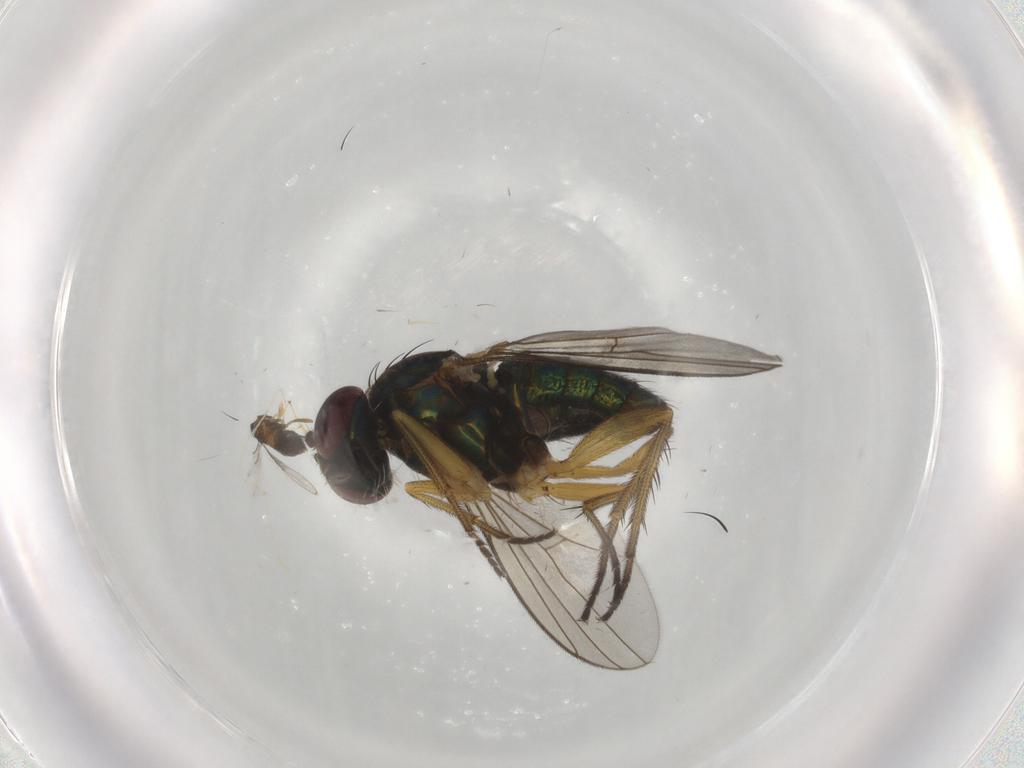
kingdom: Animalia
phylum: Arthropoda
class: Insecta
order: Diptera
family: Dolichopodidae
